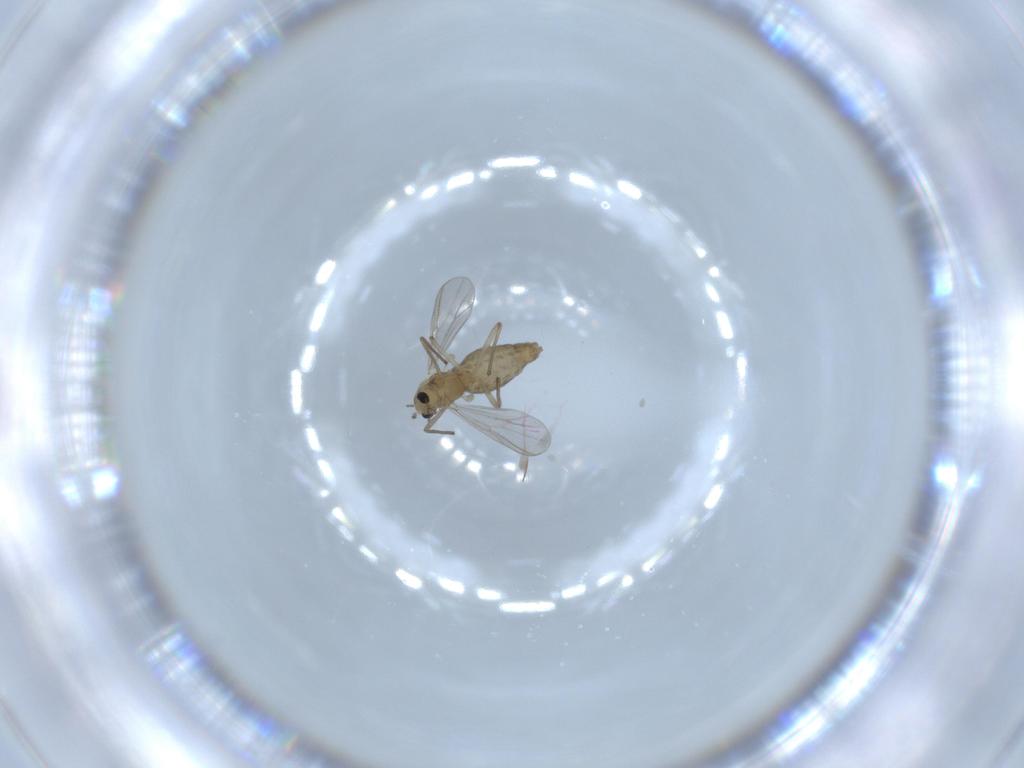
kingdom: Animalia
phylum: Arthropoda
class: Insecta
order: Diptera
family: Chironomidae
